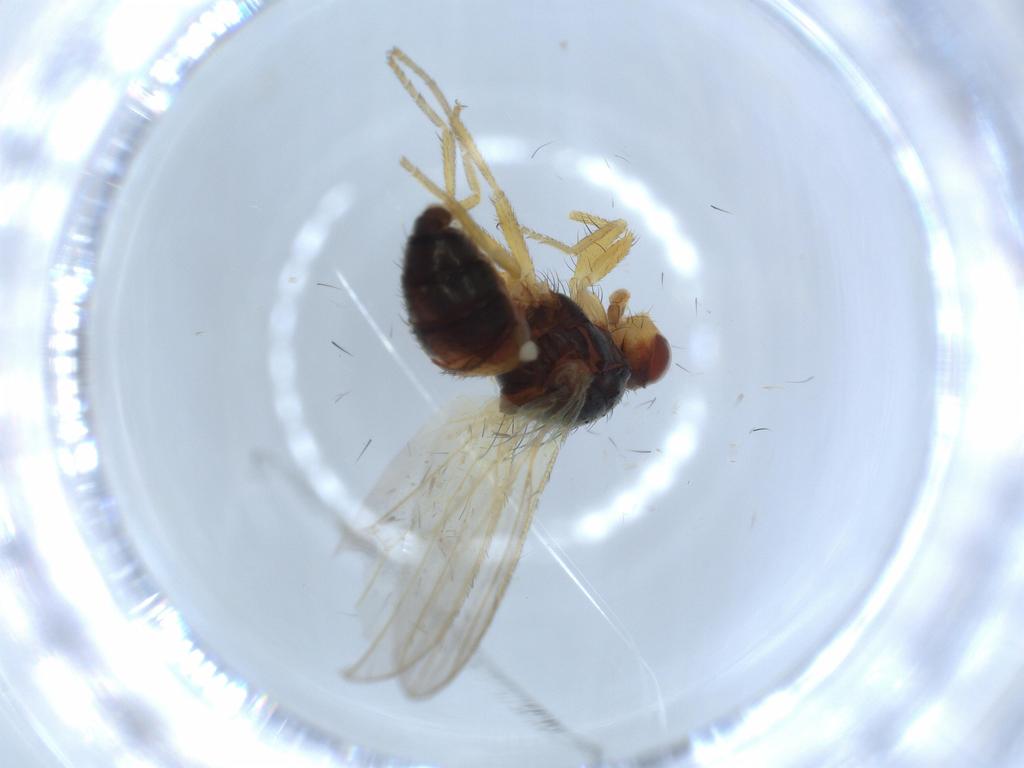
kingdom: Animalia
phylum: Arthropoda
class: Insecta
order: Diptera
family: Heleomyzidae
